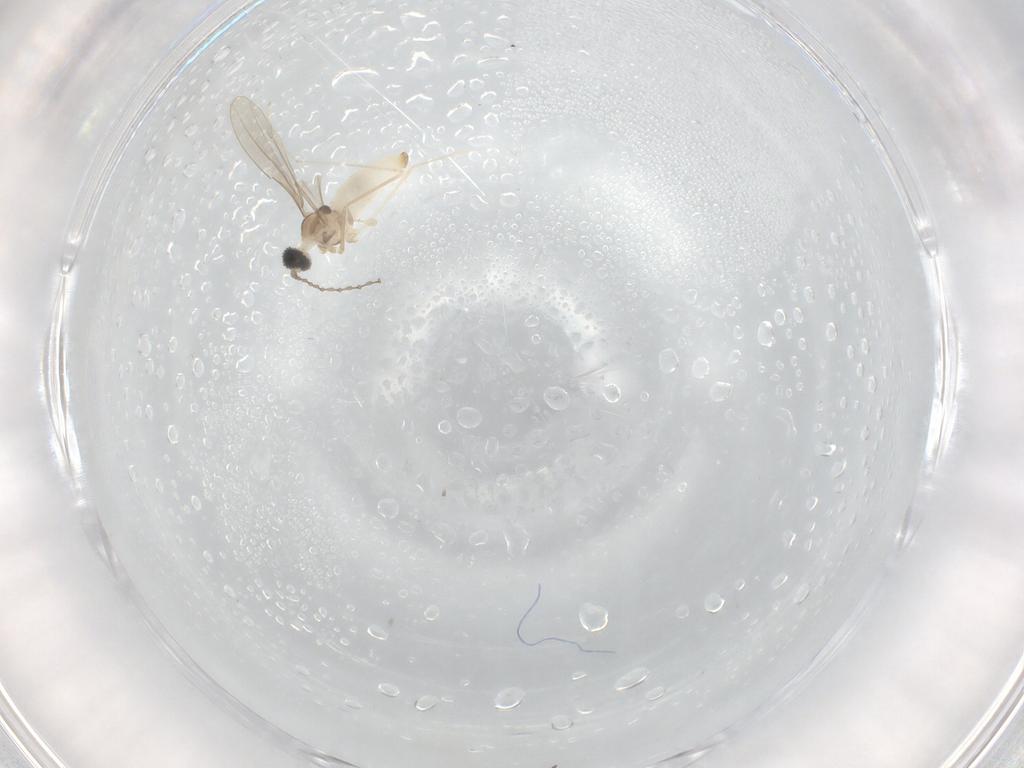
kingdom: Animalia
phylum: Arthropoda
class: Insecta
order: Diptera
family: Cecidomyiidae
